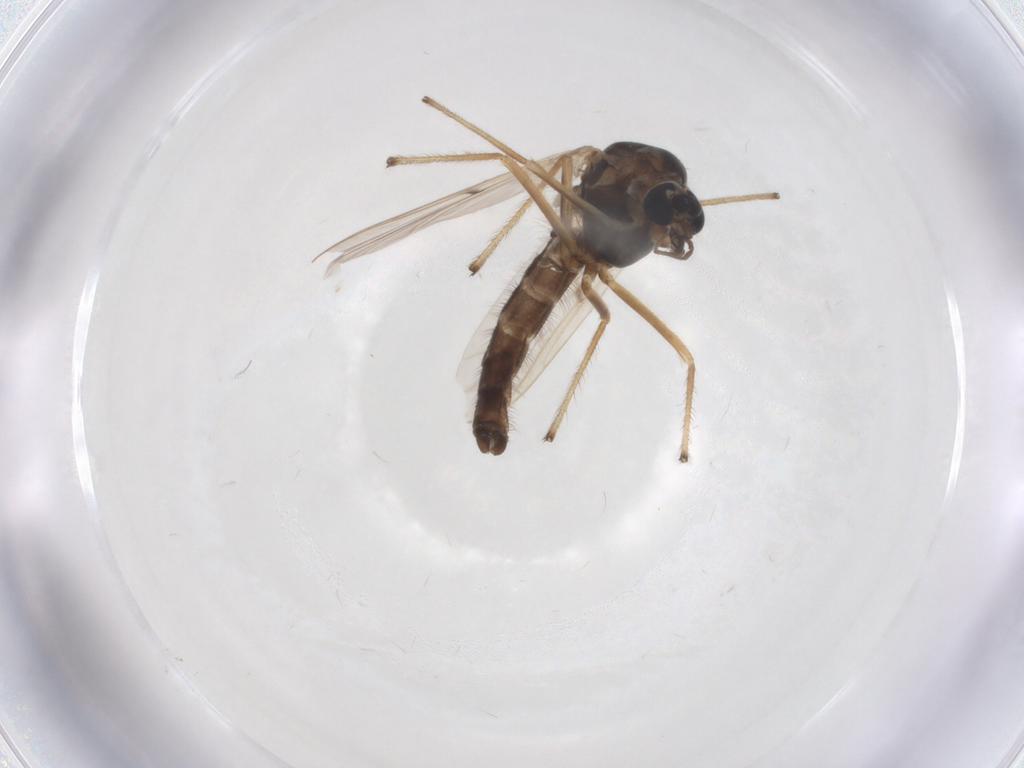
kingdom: Animalia
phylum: Arthropoda
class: Insecta
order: Diptera
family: Chironomidae
